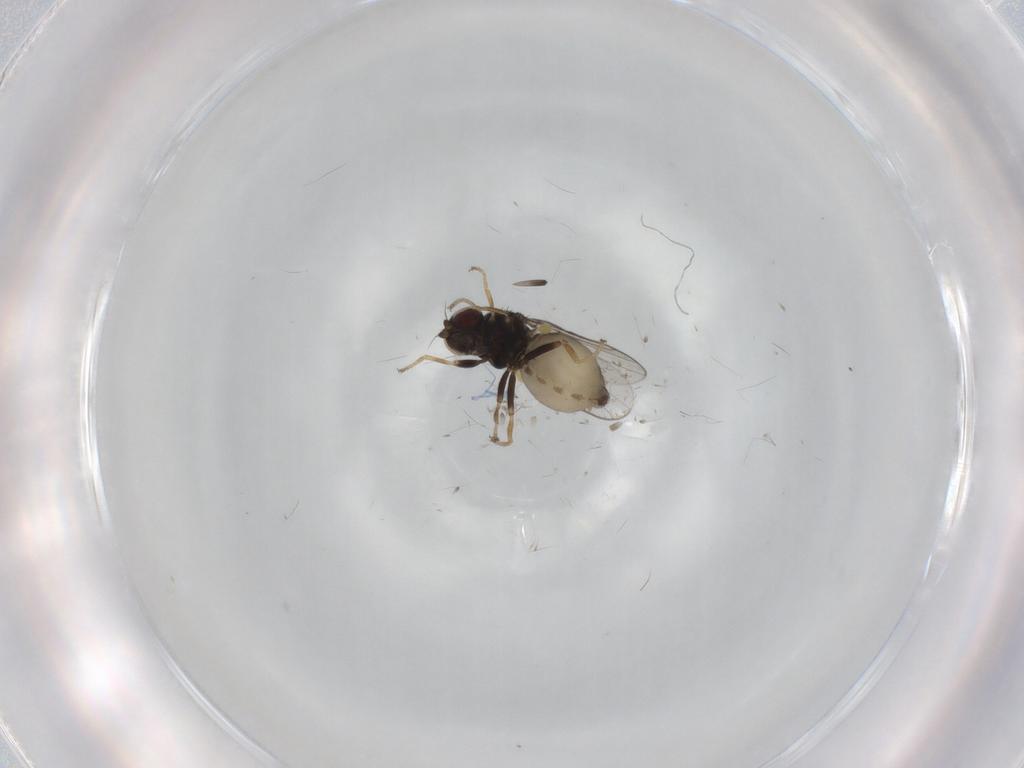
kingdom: Animalia
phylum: Arthropoda
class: Insecta
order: Diptera
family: Chloropidae
